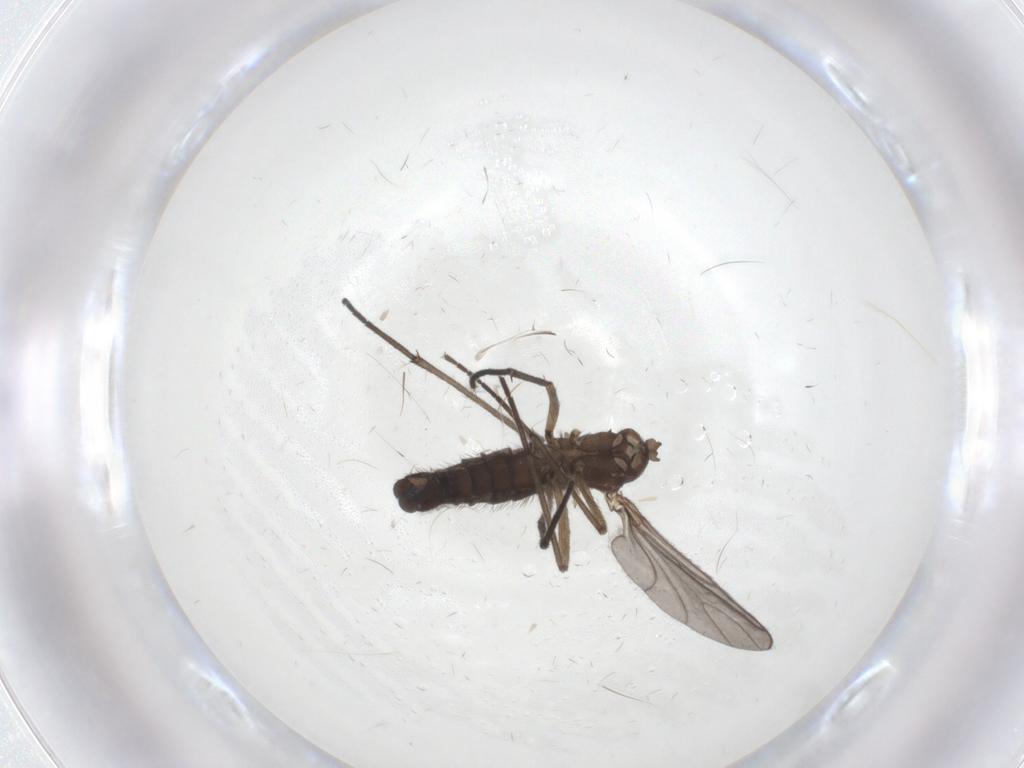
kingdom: Animalia
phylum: Arthropoda
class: Insecta
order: Diptera
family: Sciaridae
